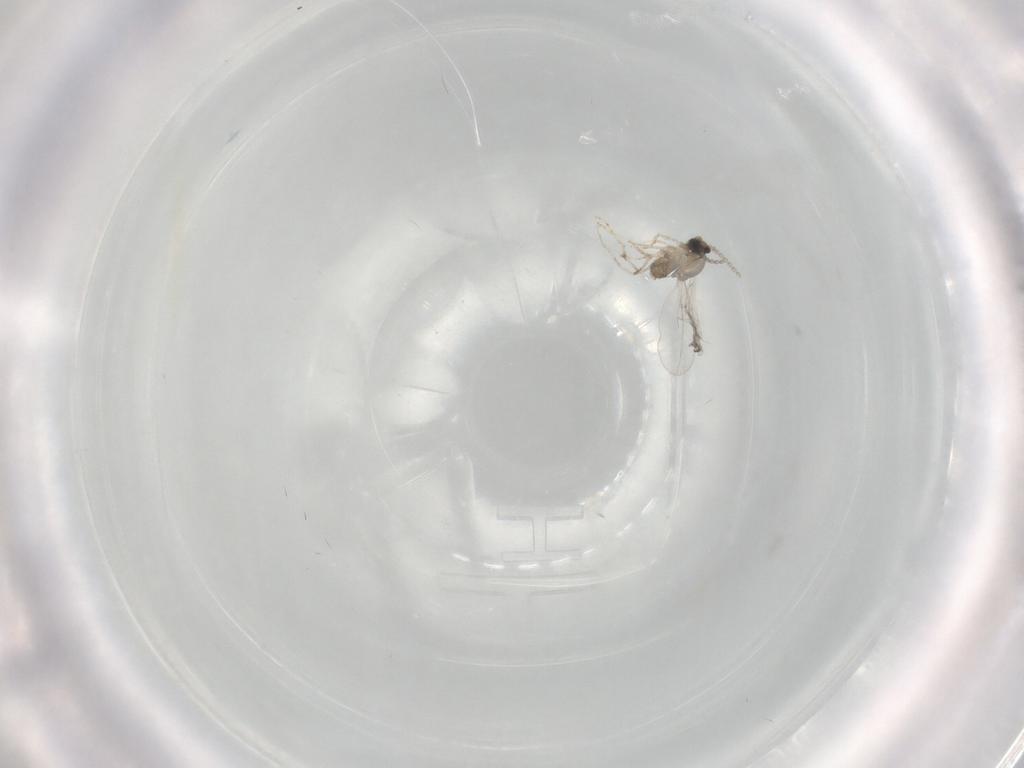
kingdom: Animalia
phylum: Arthropoda
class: Insecta
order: Diptera
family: Cecidomyiidae
